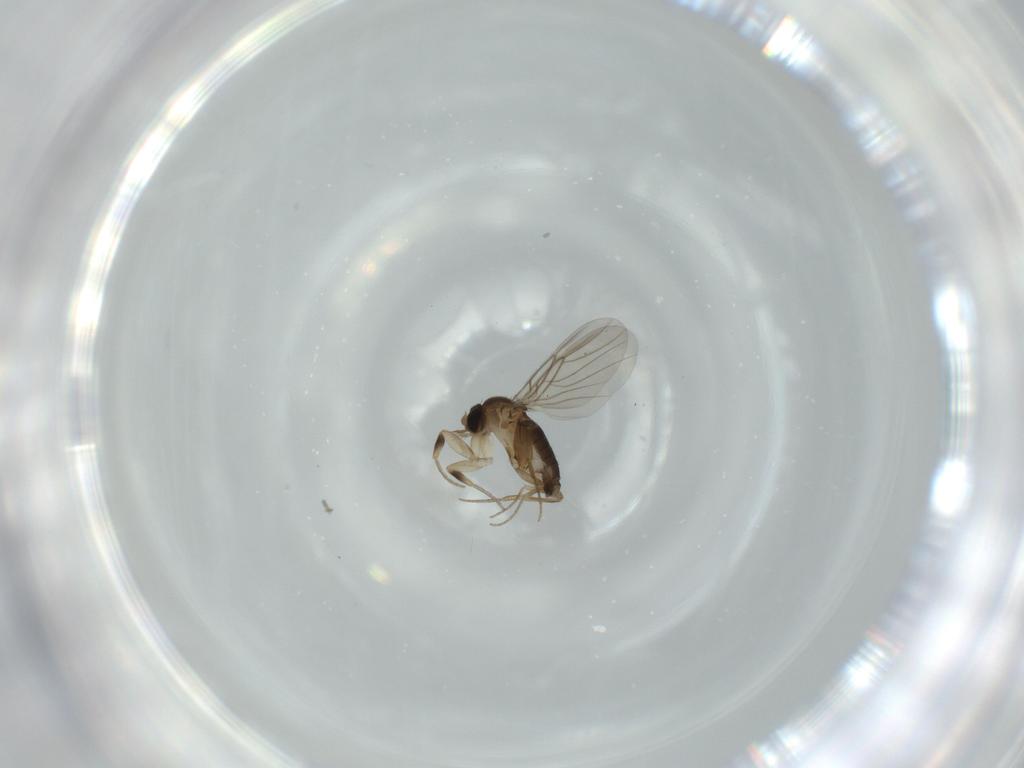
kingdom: Animalia
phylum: Arthropoda
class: Insecta
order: Diptera
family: Phoridae
